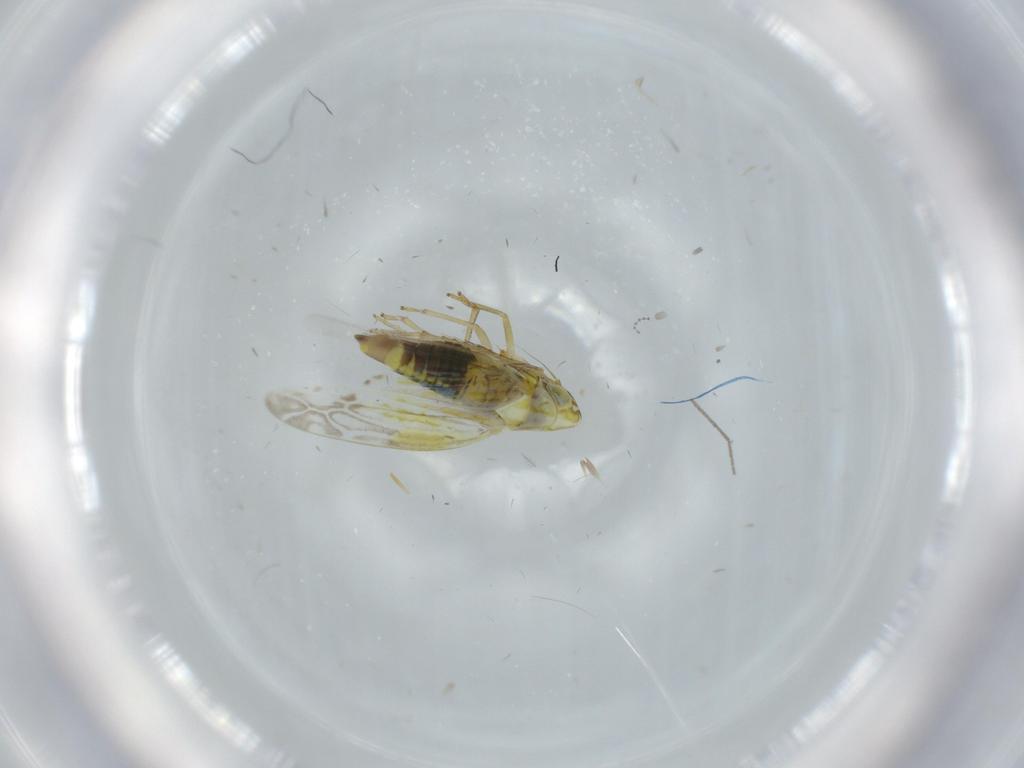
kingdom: Animalia
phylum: Arthropoda
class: Insecta
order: Hemiptera
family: Cicadellidae
